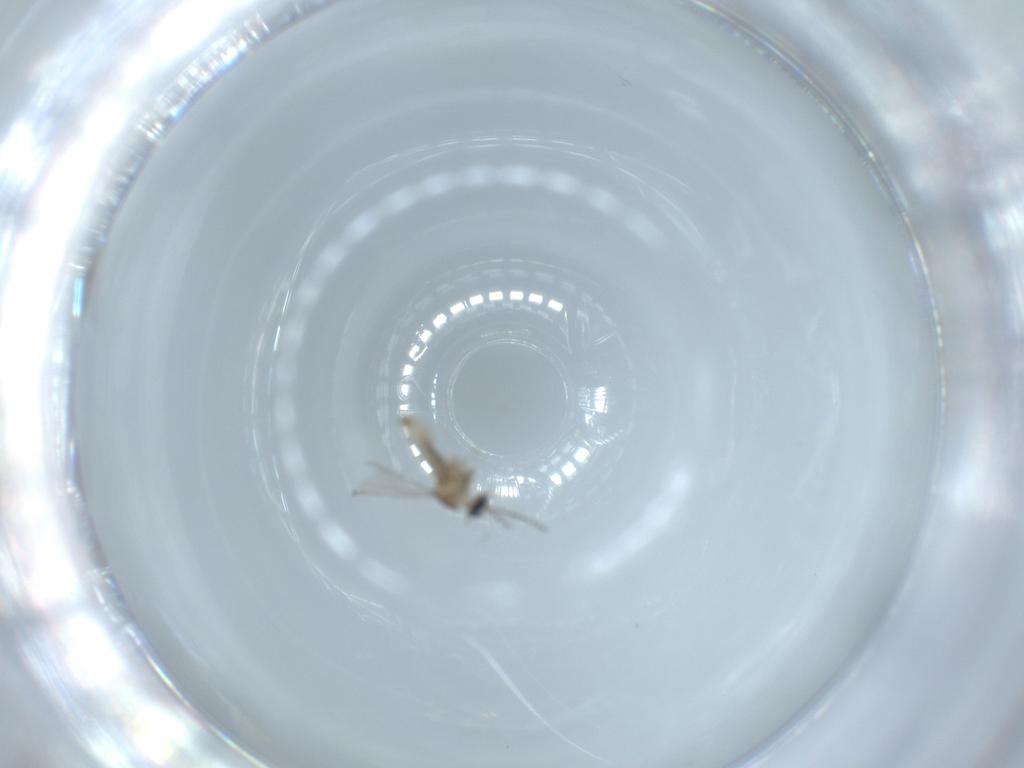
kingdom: Animalia
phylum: Arthropoda
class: Insecta
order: Diptera
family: Cecidomyiidae
